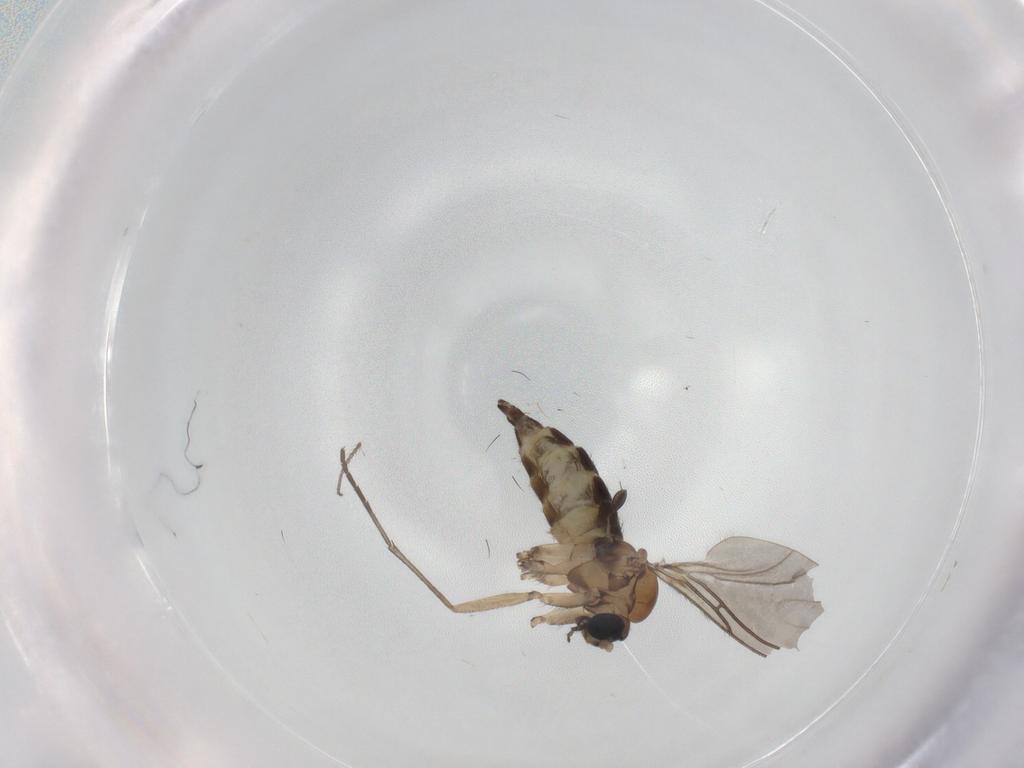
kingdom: Animalia
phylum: Arthropoda
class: Insecta
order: Diptera
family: Sciaridae
